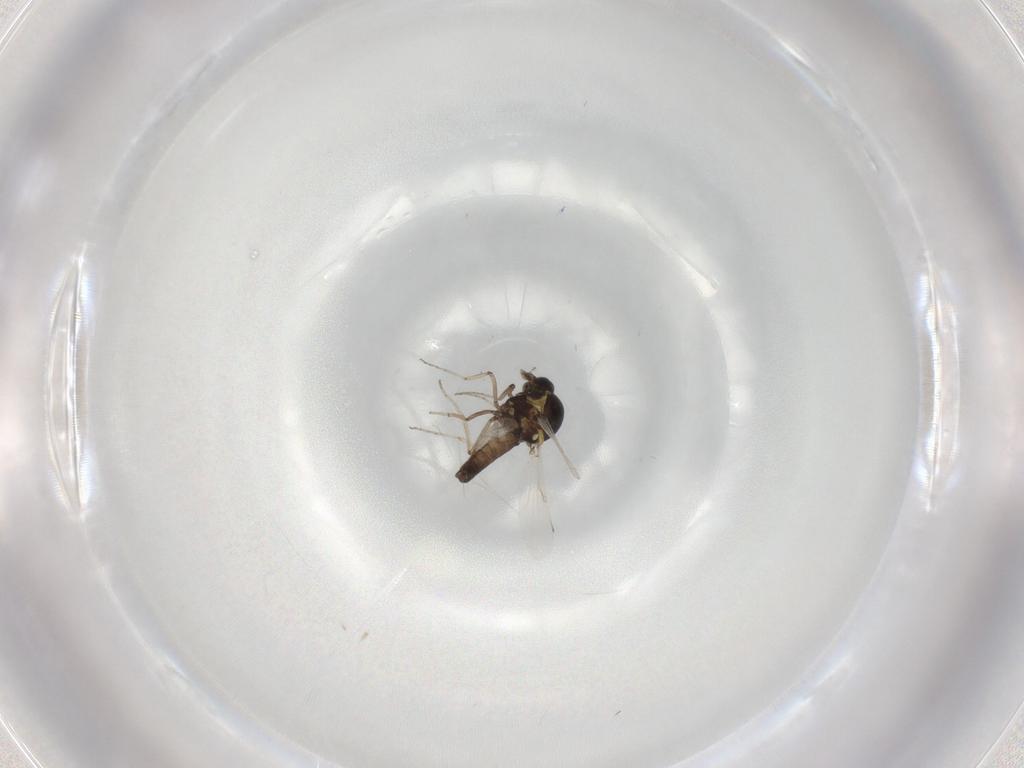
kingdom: Animalia
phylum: Arthropoda
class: Insecta
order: Diptera
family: Ceratopogonidae
